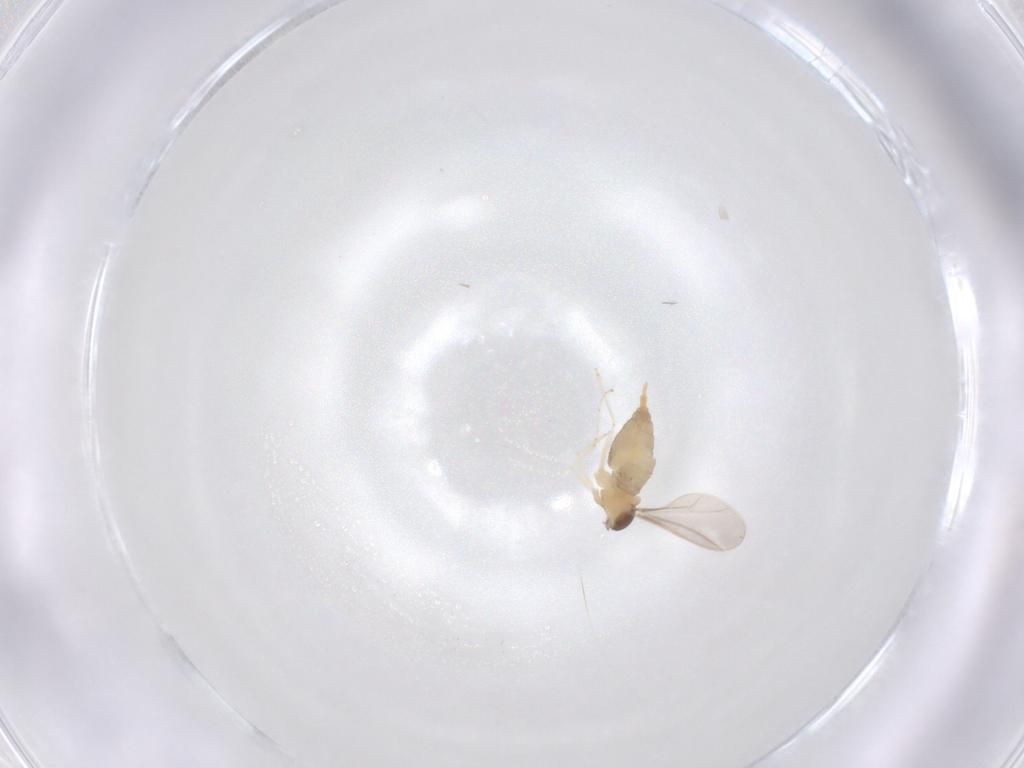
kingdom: Animalia
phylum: Arthropoda
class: Insecta
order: Diptera
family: Cecidomyiidae
